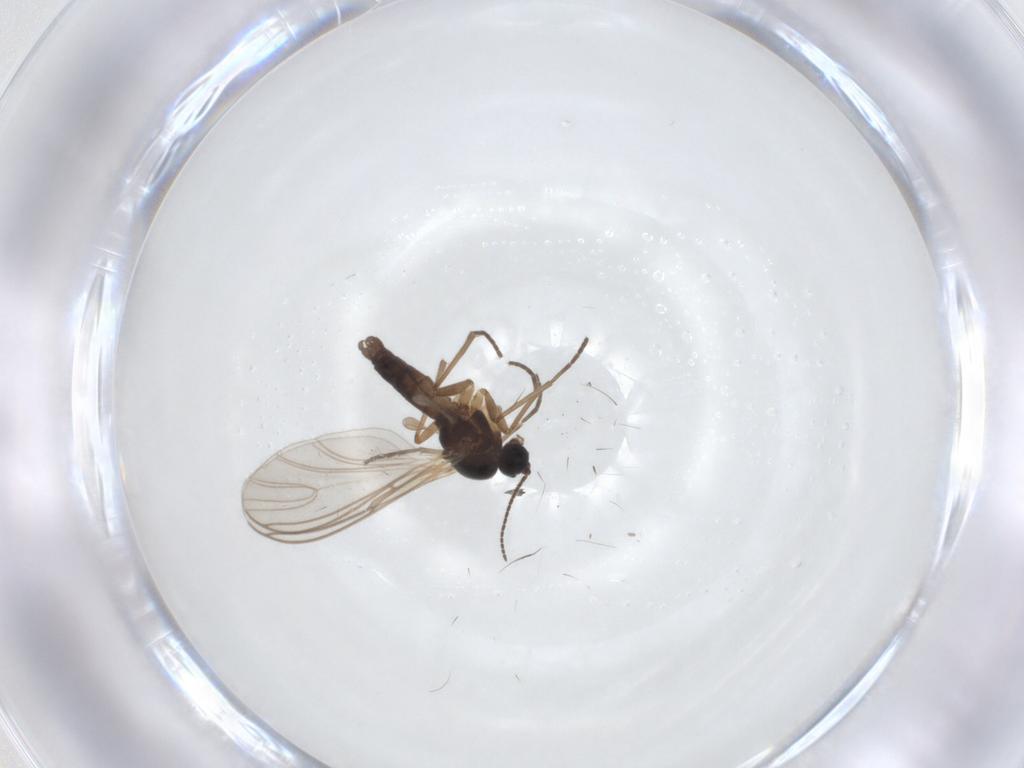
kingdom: Animalia
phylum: Arthropoda
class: Insecta
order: Diptera
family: Sciaridae
